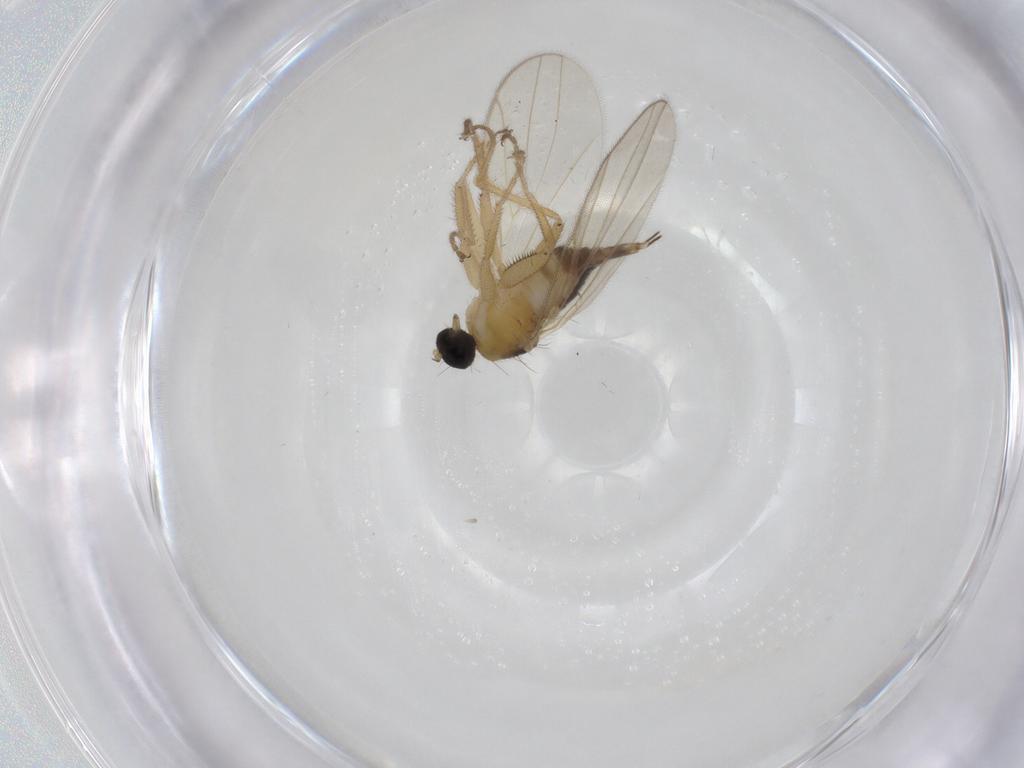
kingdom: Animalia
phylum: Arthropoda
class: Insecta
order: Diptera
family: Hybotidae
